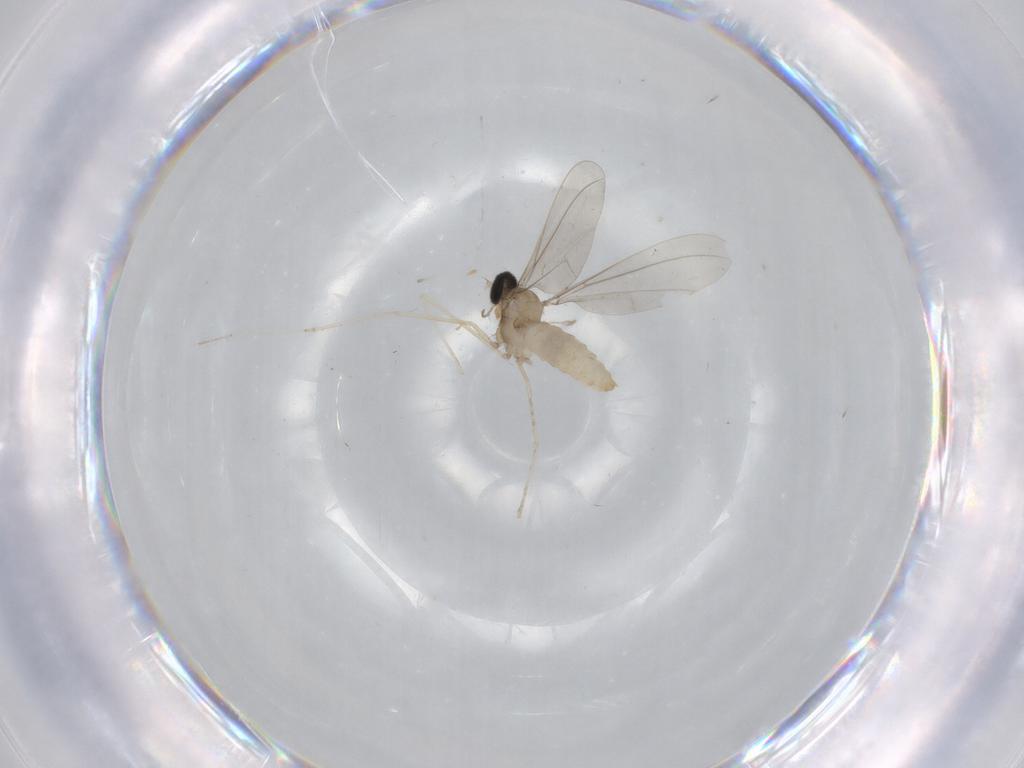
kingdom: Animalia
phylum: Arthropoda
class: Insecta
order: Diptera
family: Cecidomyiidae
